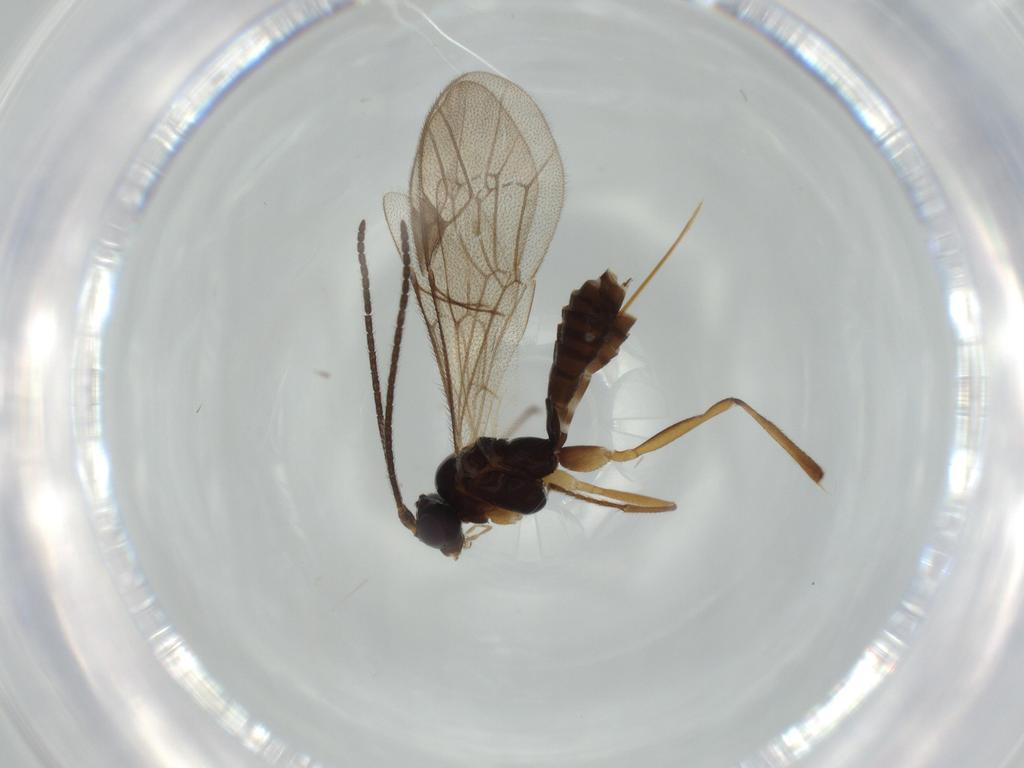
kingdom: Animalia
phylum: Arthropoda
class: Insecta
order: Hymenoptera
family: Ichneumonidae
